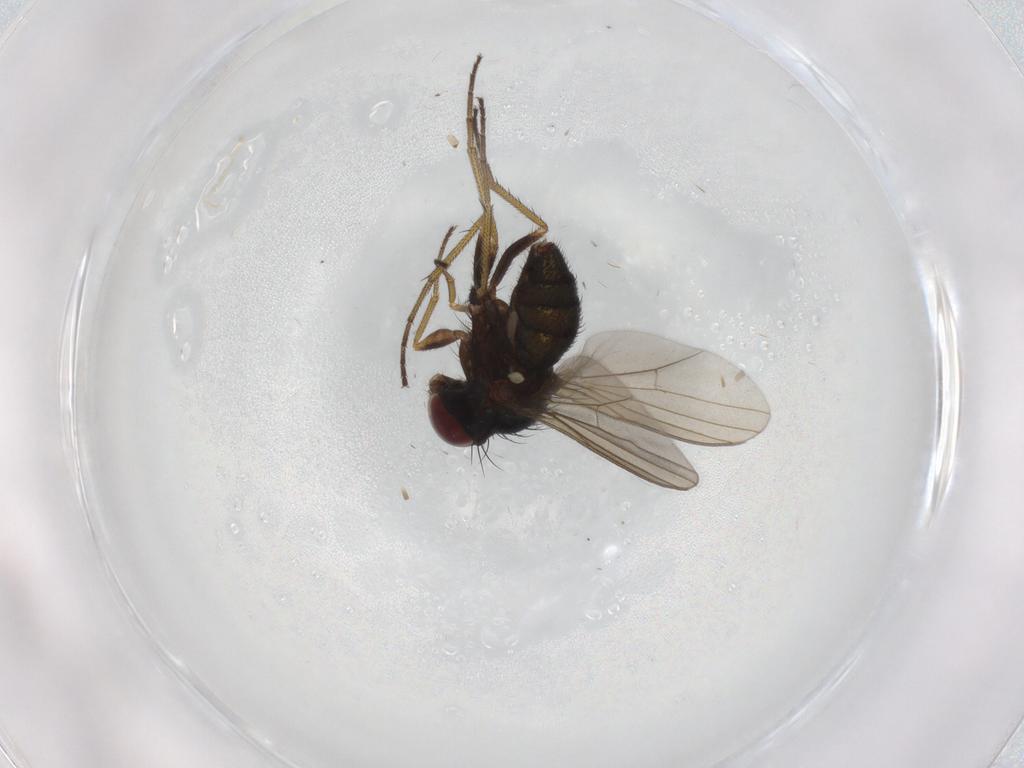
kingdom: Animalia
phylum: Arthropoda
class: Insecta
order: Diptera
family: Dolichopodidae
